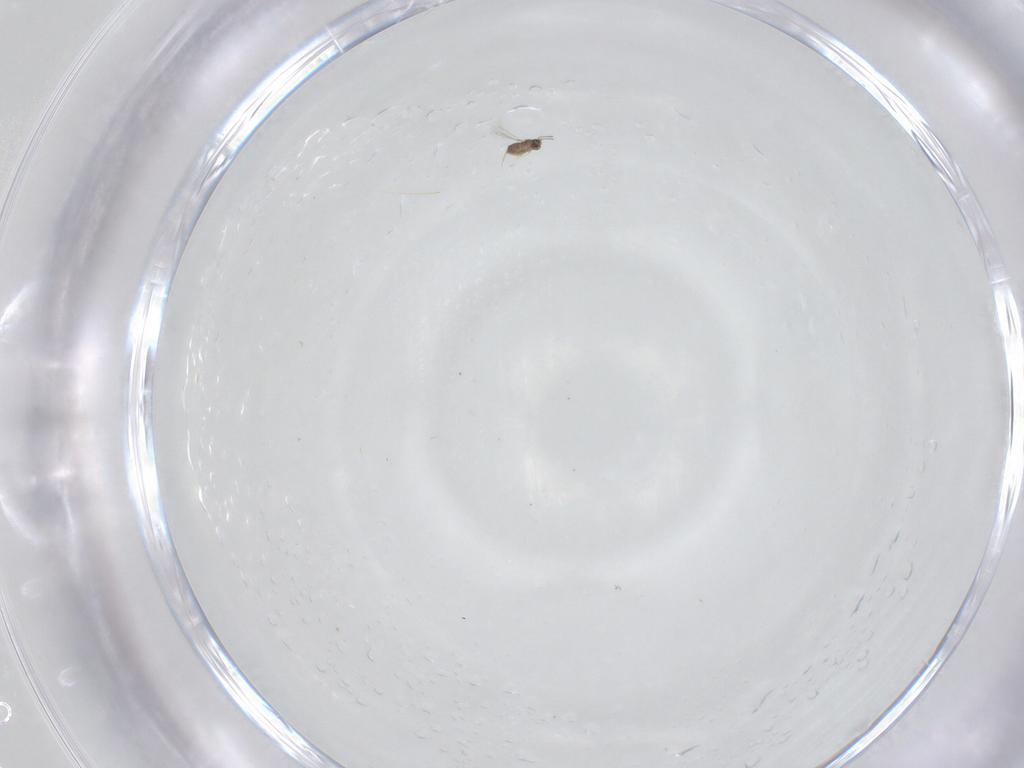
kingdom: Animalia
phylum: Arthropoda
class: Insecta
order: Hymenoptera
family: Mymaridae
